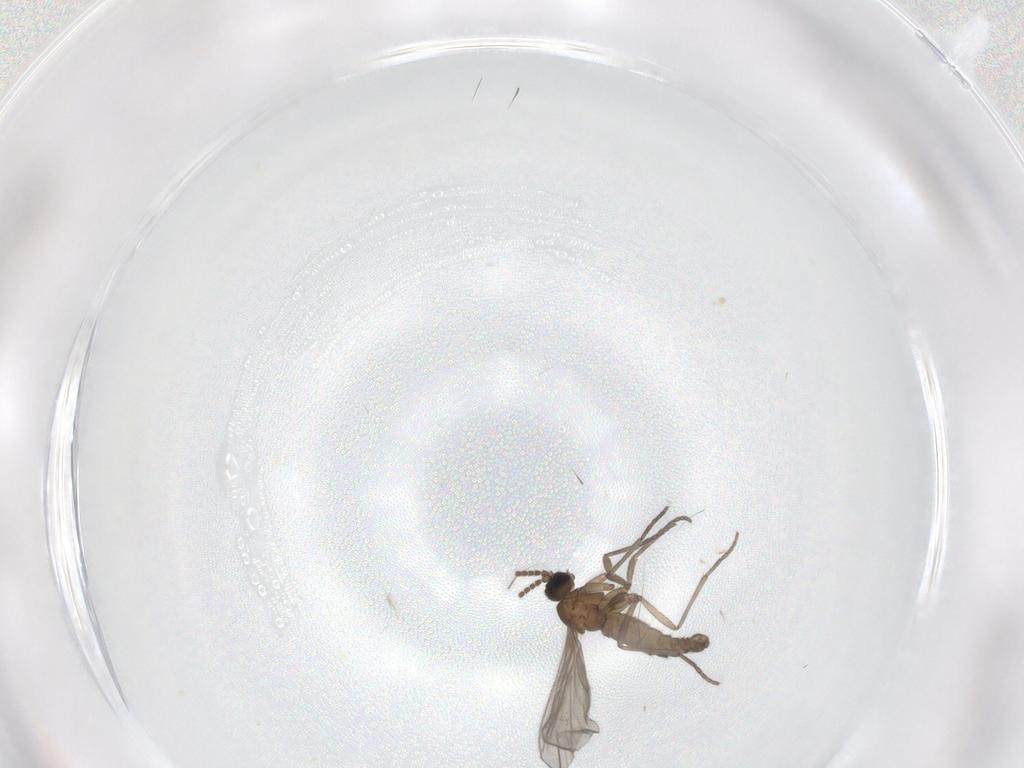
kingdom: Animalia
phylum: Arthropoda
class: Insecta
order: Diptera
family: Sciaridae
